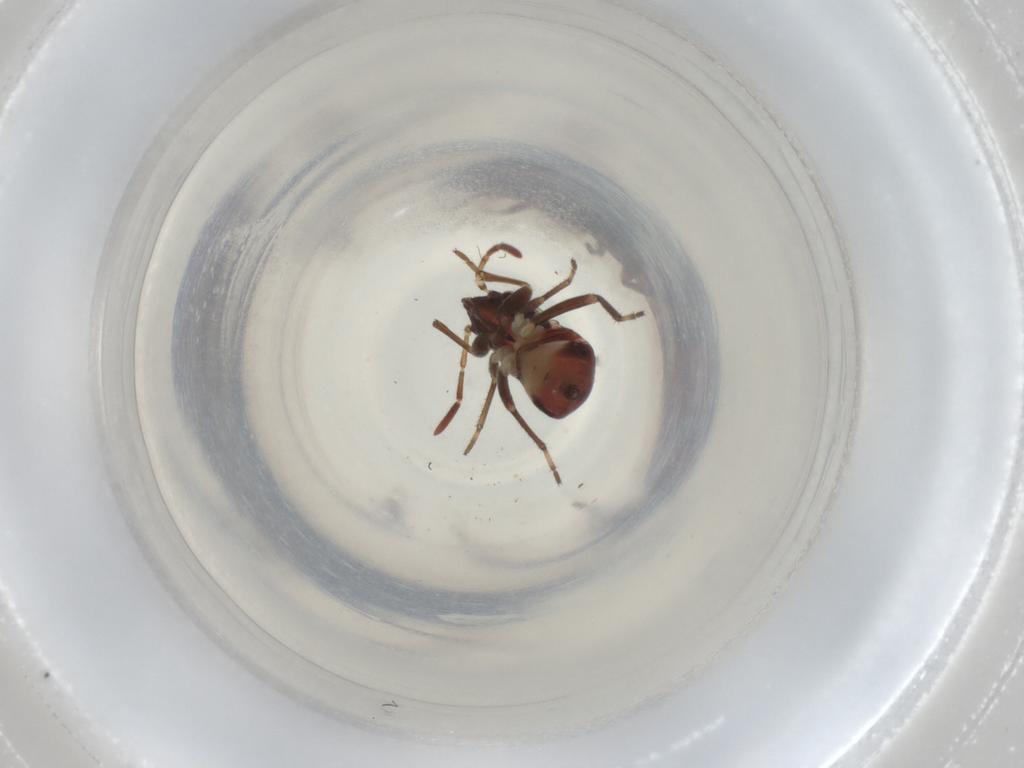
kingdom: Animalia
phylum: Arthropoda
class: Insecta
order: Hemiptera
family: Rhyparochromidae
